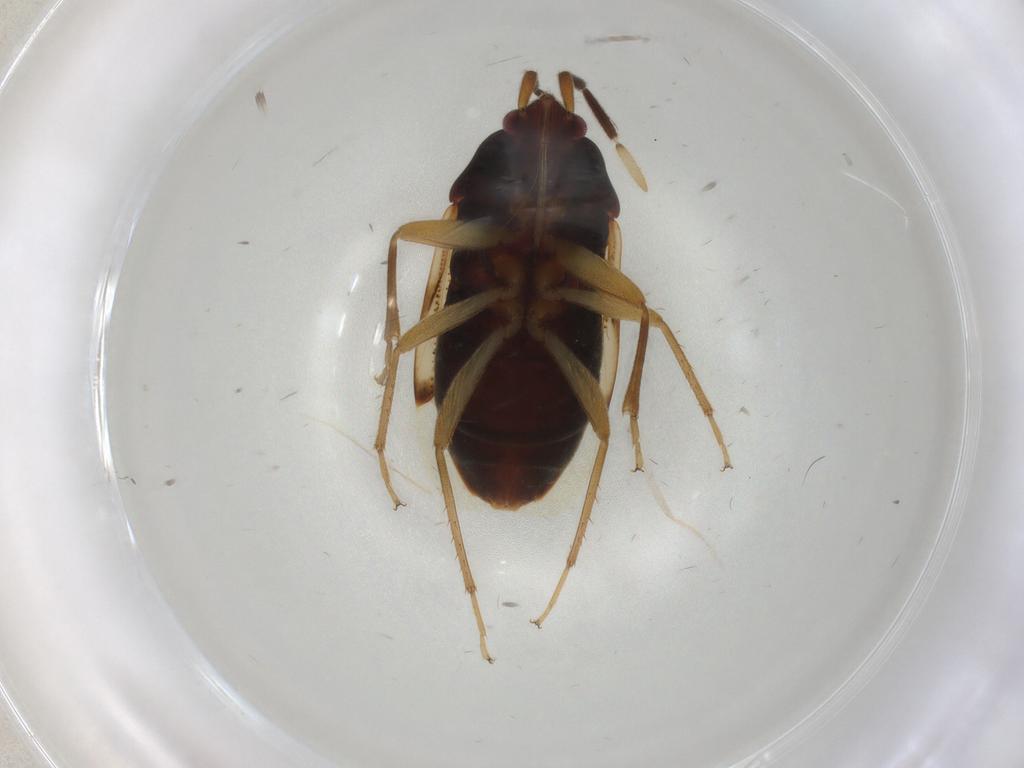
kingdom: Animalia
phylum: Arthropoda
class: Insecta
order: Hemiptera
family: Rhyparochromidae
